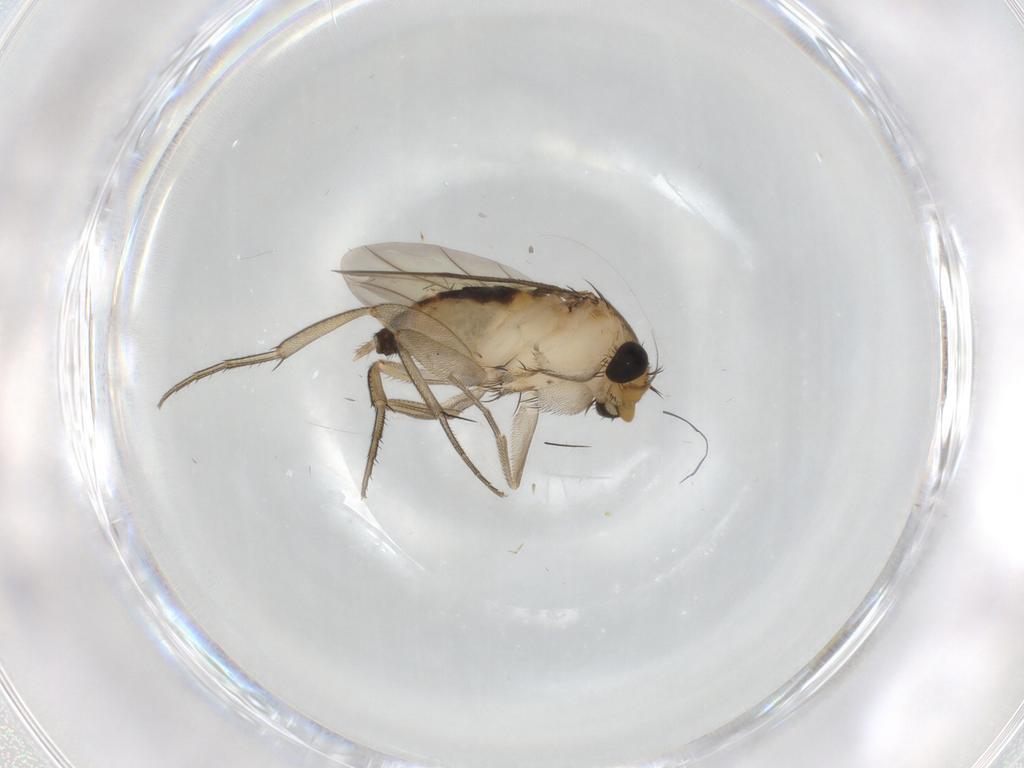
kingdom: Animalia
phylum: Arthropoda
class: Insecta
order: Diptera
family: Phoridae
